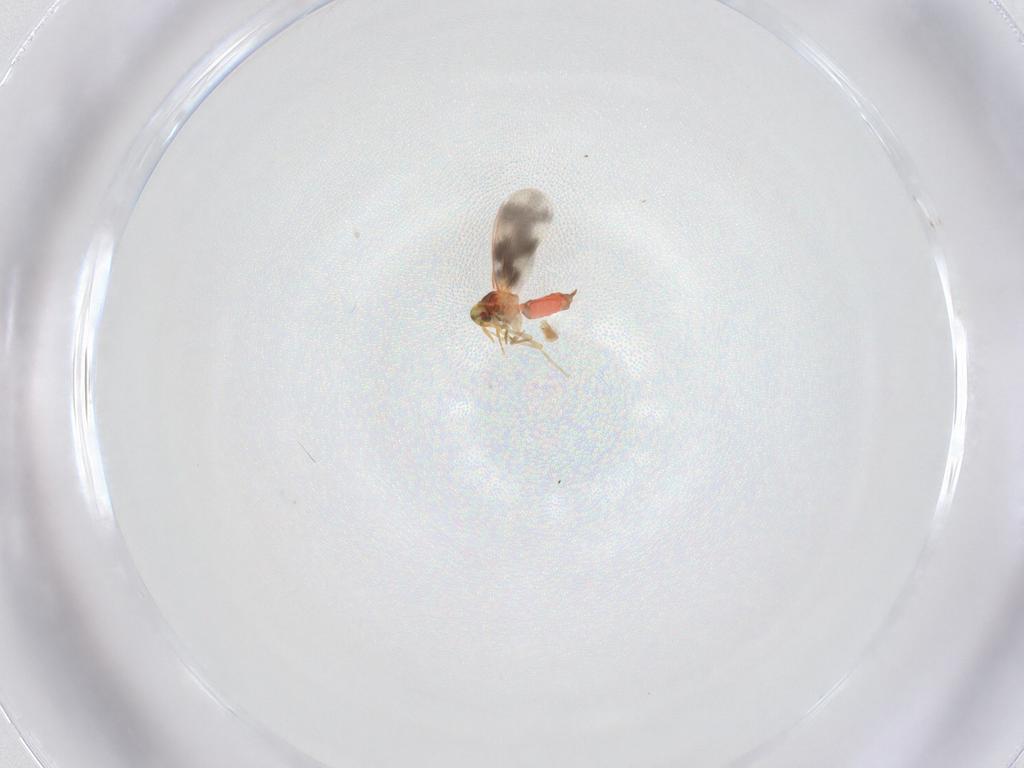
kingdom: Animalia
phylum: Arthropoda
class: Insecta
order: Hemiptera
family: Aleyrodidae
